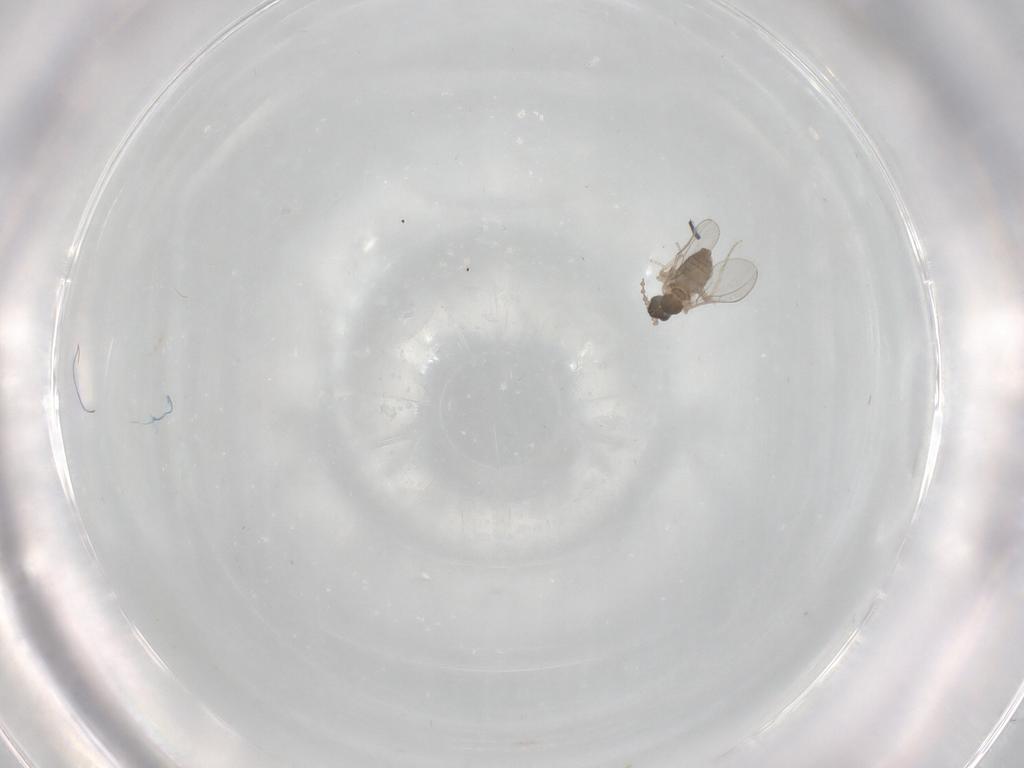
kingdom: Animalia
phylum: Arthropoda
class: Insecta
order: Diptera
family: Cecidomyiidae
